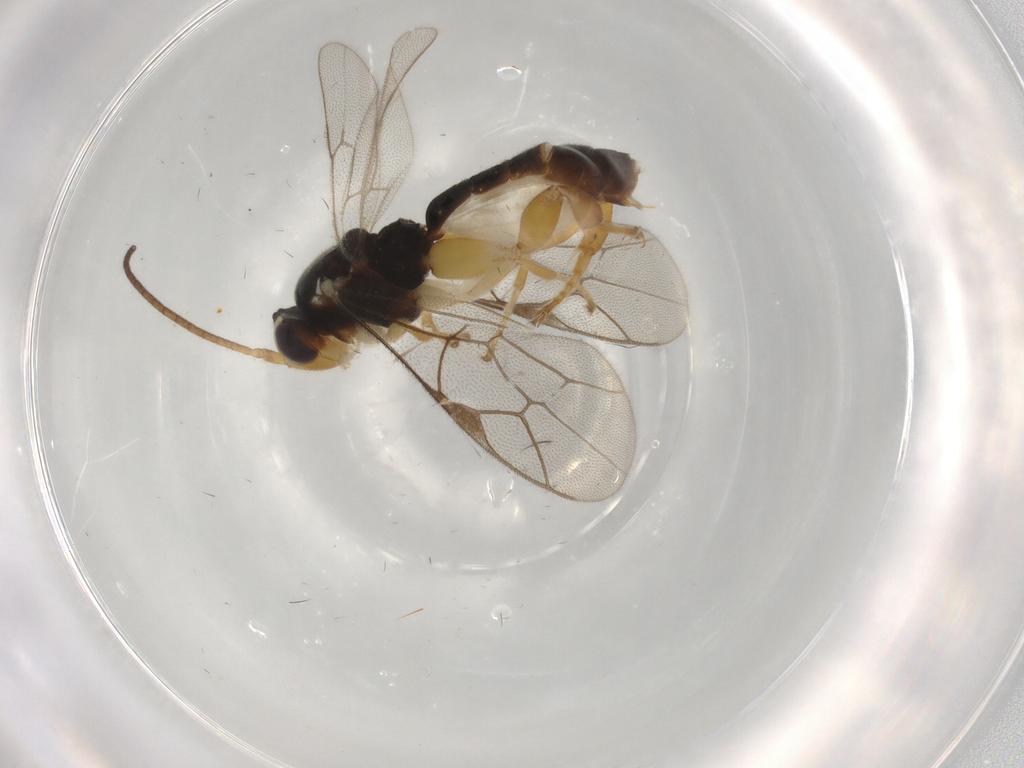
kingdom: Animalia
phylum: Arthropoda
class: Insecta
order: Hymenoptera
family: Ichneumonidae
